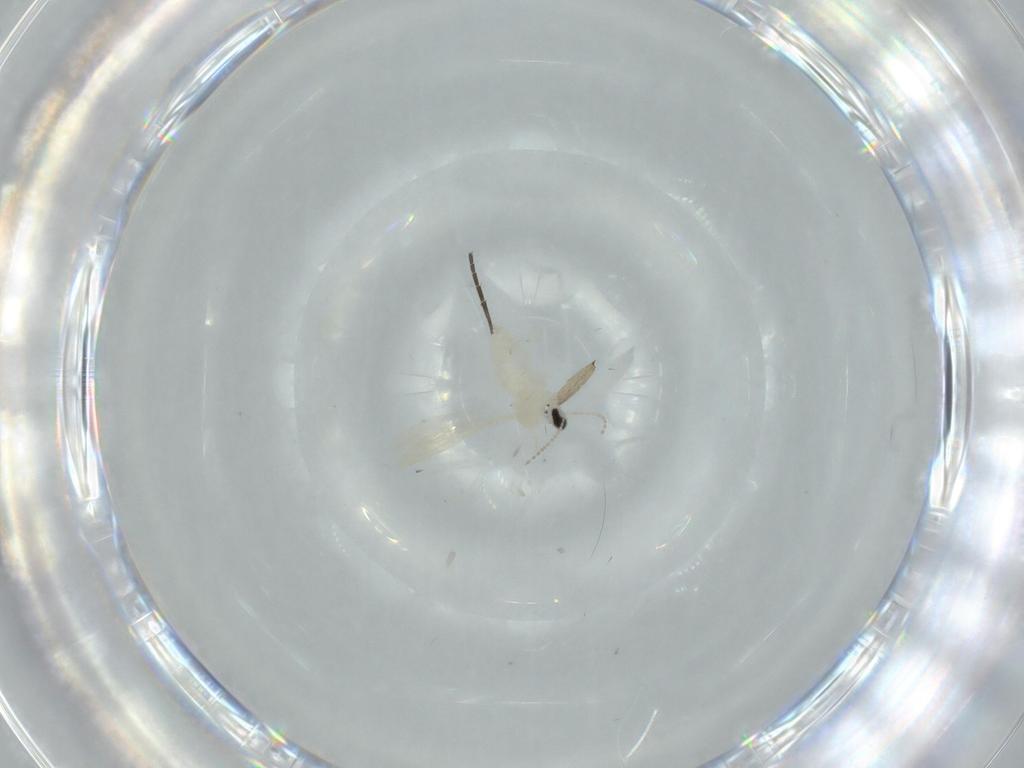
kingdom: Animalia
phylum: Arthropoda
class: Insecta
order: Diptera
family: Cecidomyiidae
